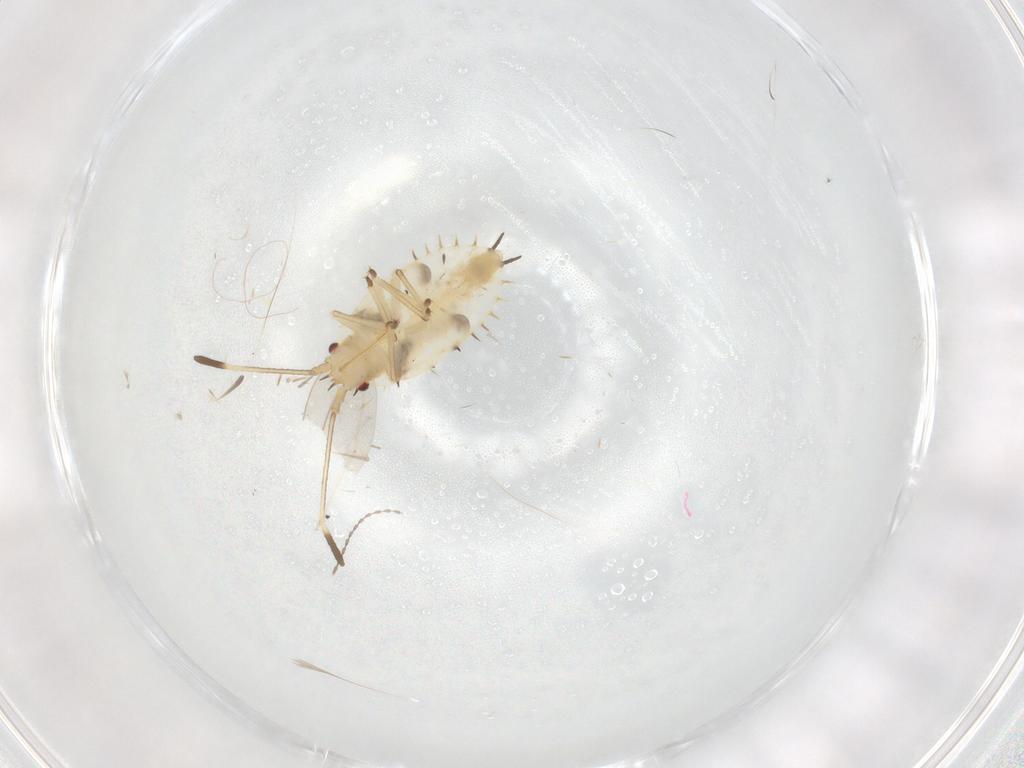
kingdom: Animalia
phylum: Arthropoda
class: Insecta
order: Hemiptera
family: Tingidae
